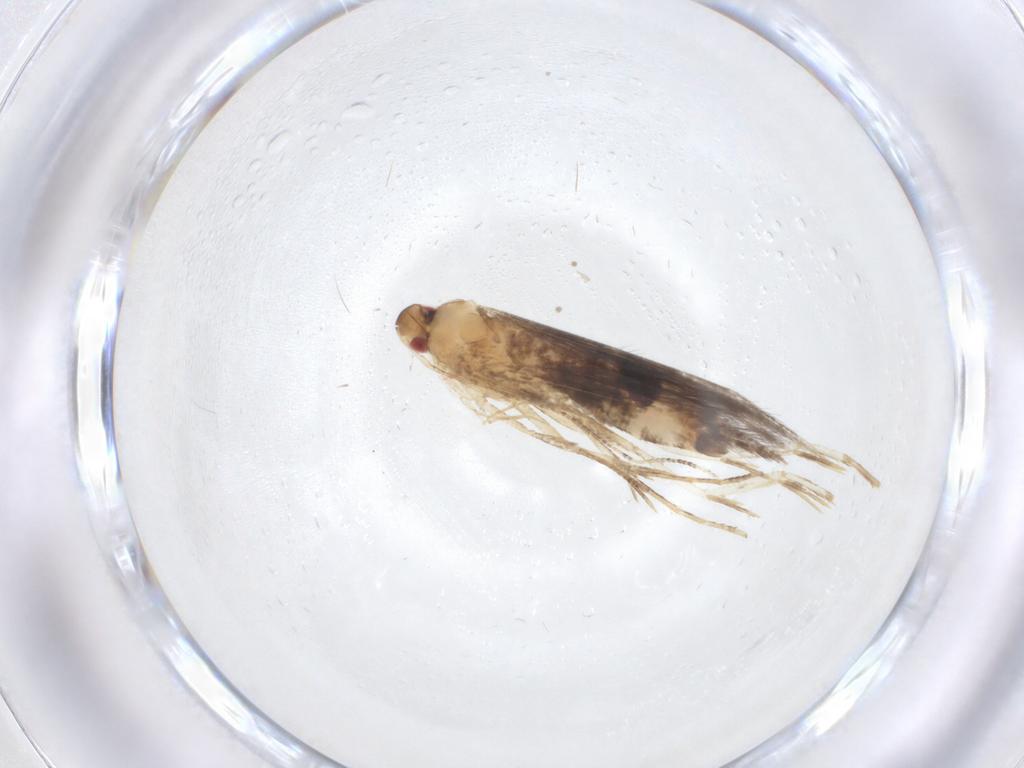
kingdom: Animalia
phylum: Arthropoda
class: Insecta
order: Lepidoptera
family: Cosmopterigidae
